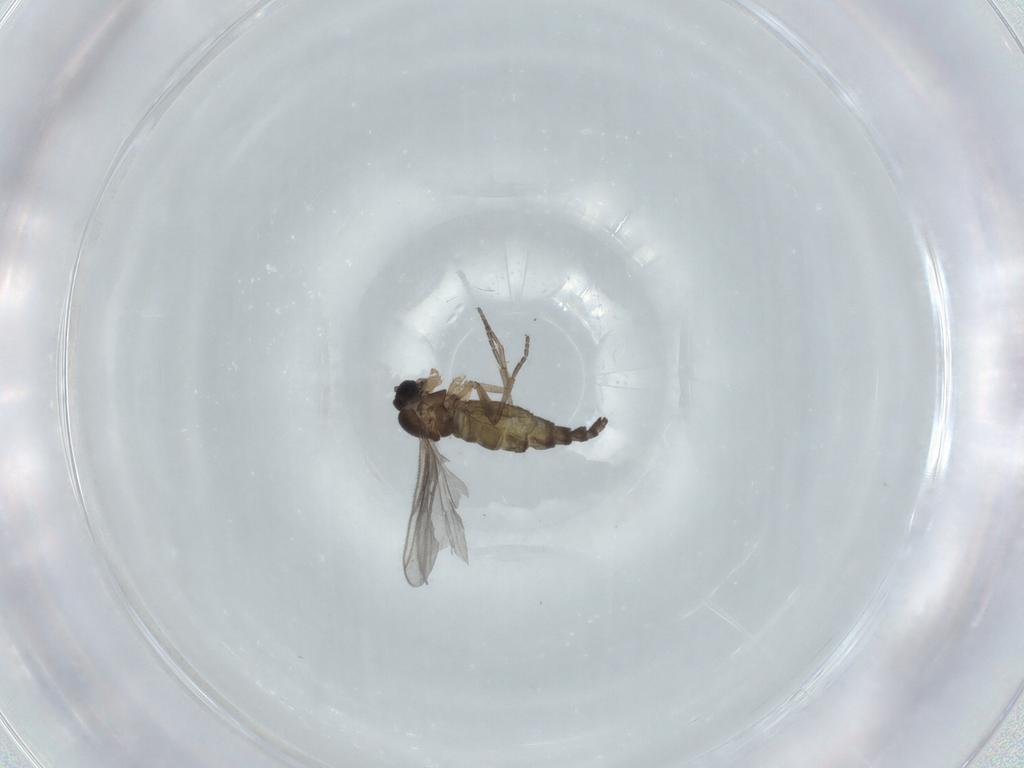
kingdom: Animalia
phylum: Arthropoda
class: Insecta
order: Diptera
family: Sciaridae
